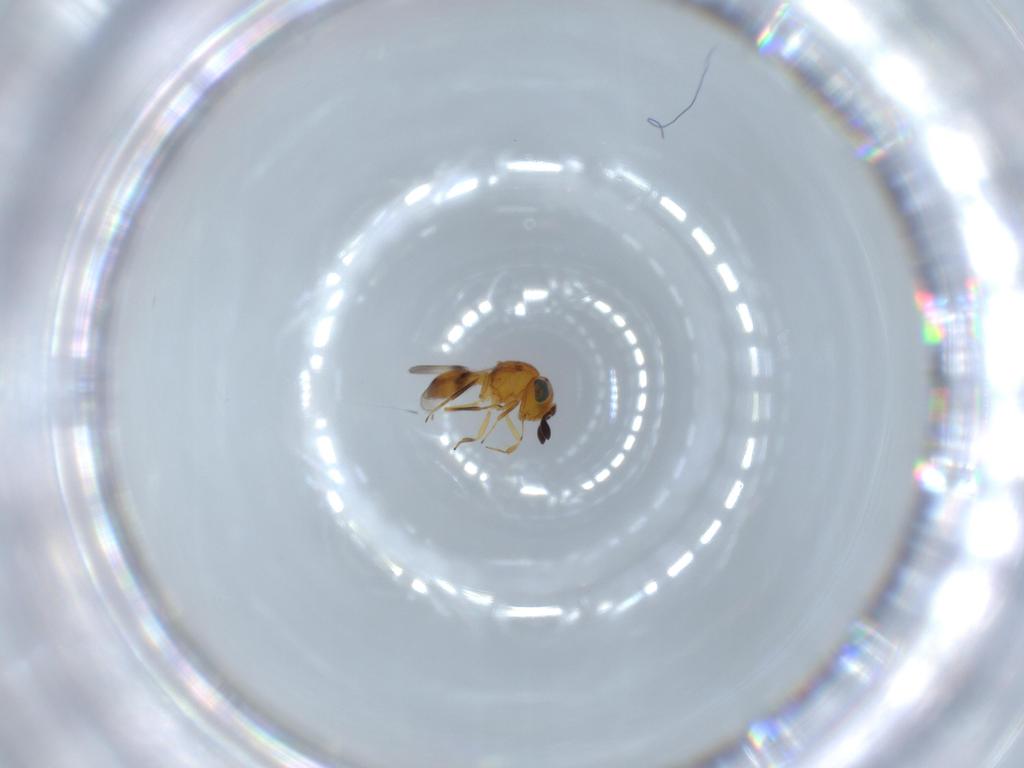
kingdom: Animalia
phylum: Arthropoda
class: Insecta
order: Hymenoptera
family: Scelionidae
